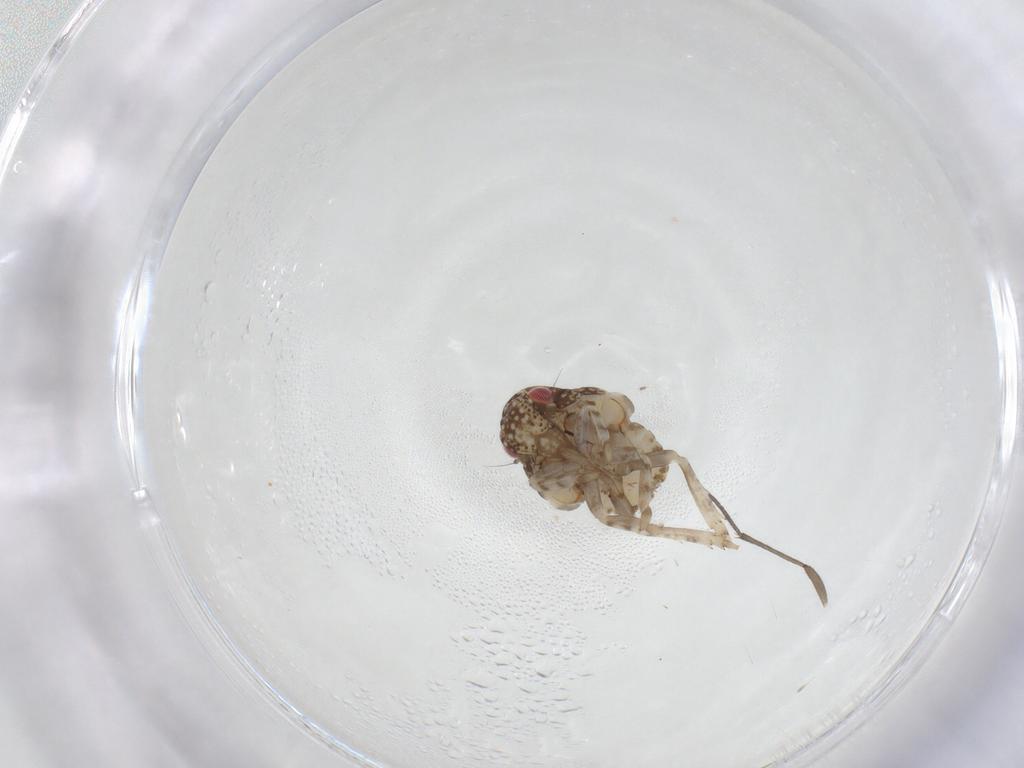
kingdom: Animalia
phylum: Arthropoda
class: Insecta
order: Hemiptera
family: Acanaloniidae
